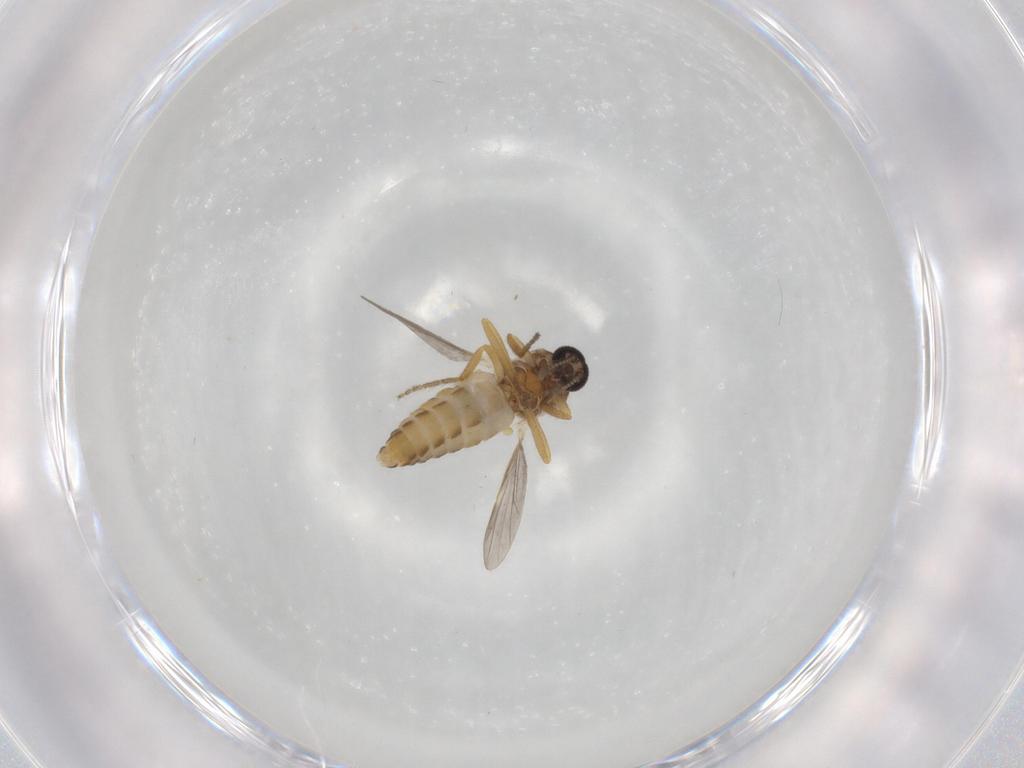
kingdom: Animalia
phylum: Arthropoda
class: Insecta
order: Diptera
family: Ceratopogonidae
